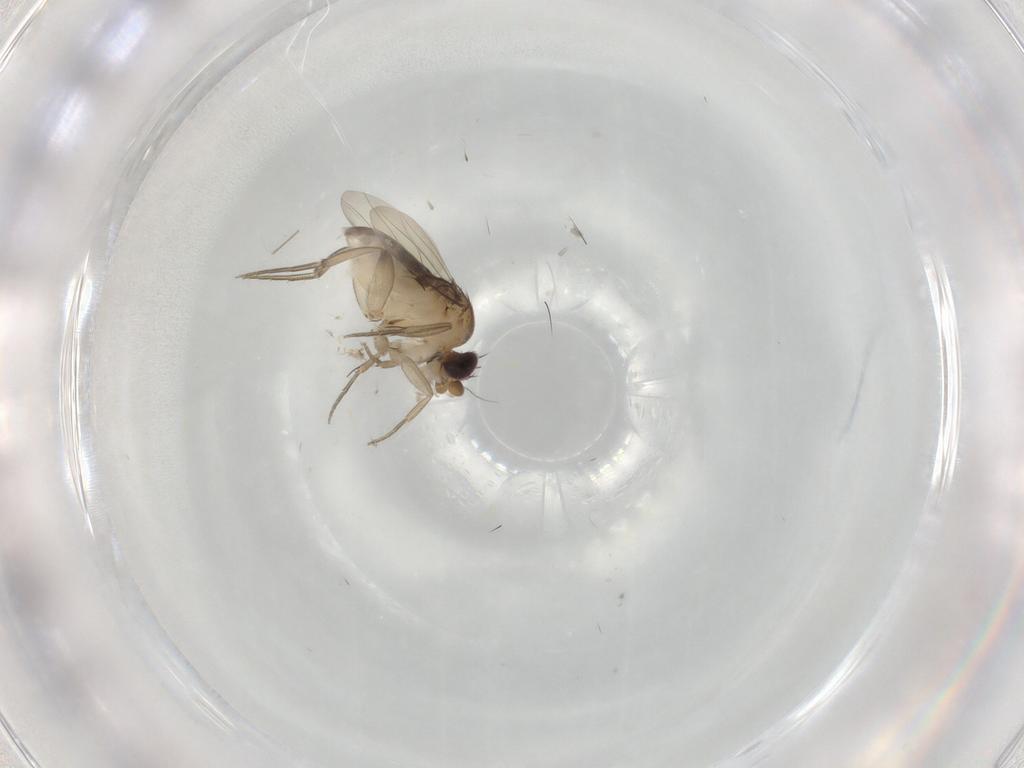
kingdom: Animalia
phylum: Arthropoda
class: Insecta
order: Diptera
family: Phoridae
